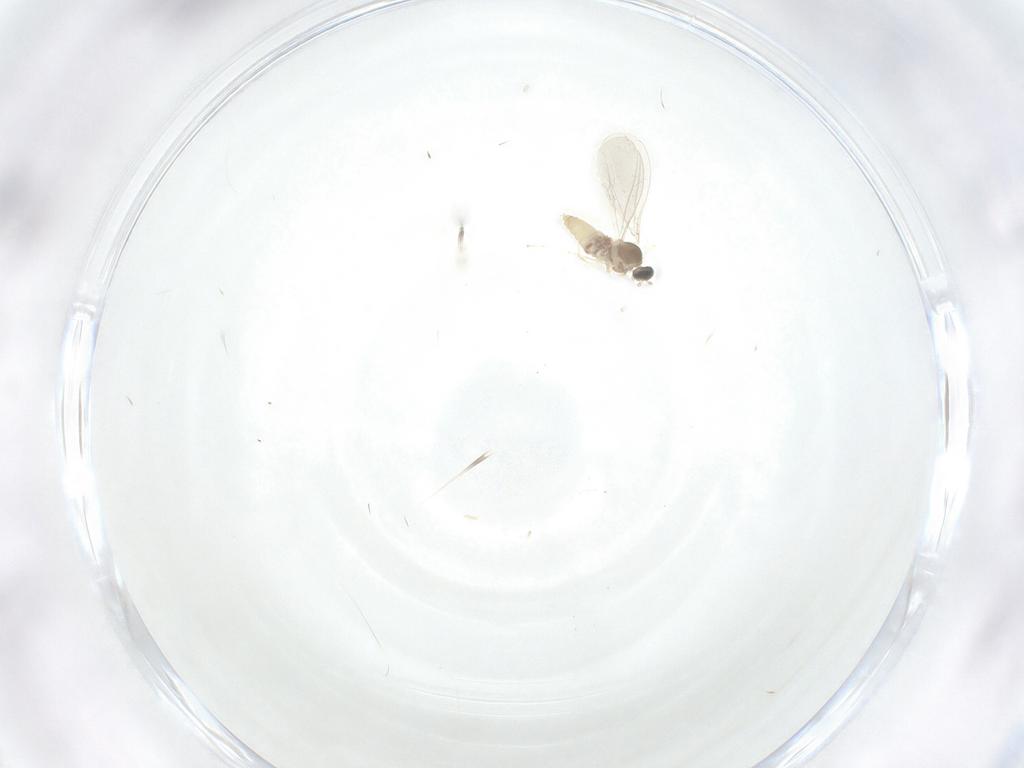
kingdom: Animalia
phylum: Arthropoda
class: Insecta
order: Diptera
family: Cecidomyiidae
